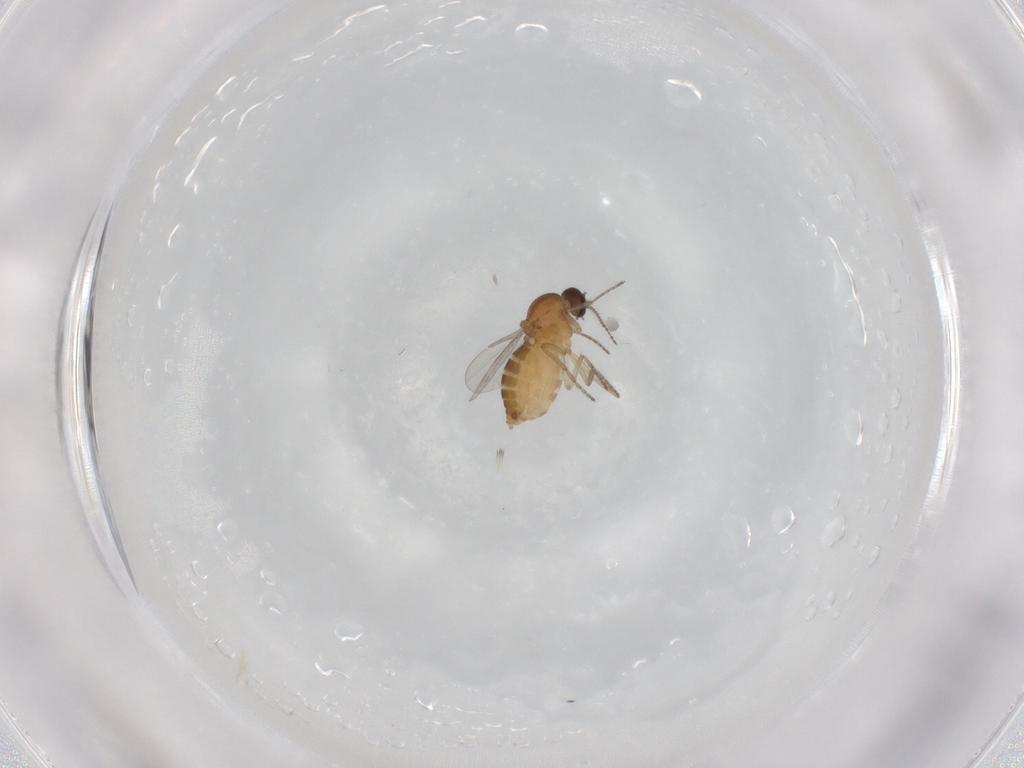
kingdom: Animalia
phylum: Arthropoda
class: Insecta
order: Diptera
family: Ceratopogonidae
